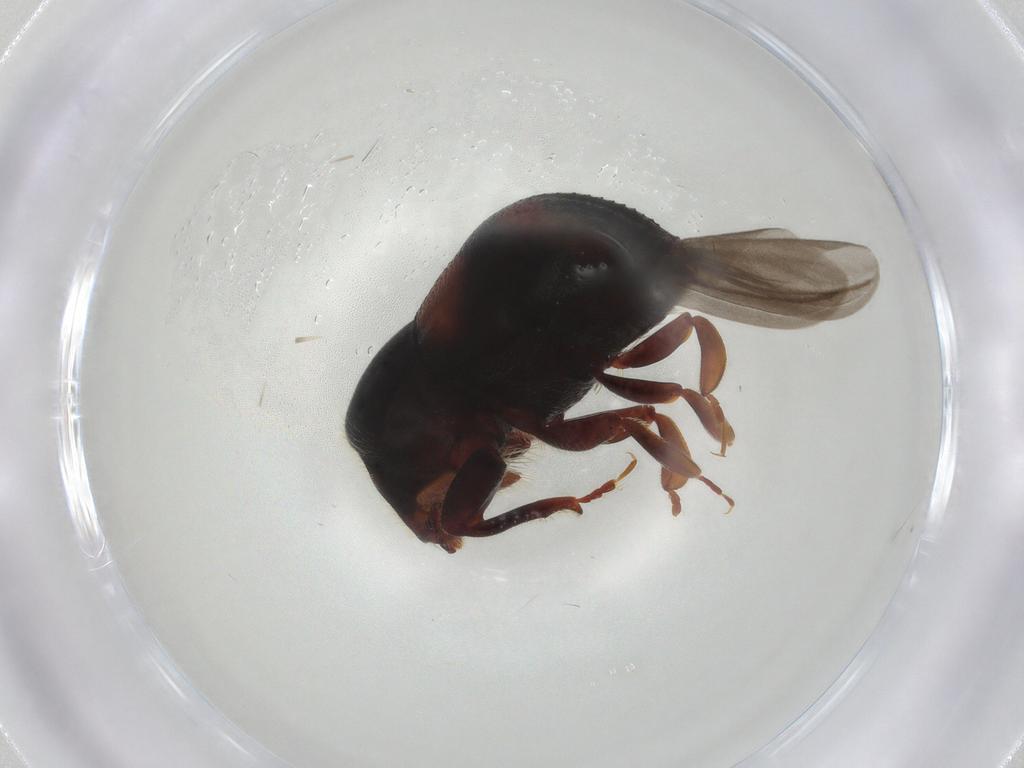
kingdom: Animalia
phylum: Arthropoda
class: Insecta
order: Coleoptera
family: Coccinellidae
